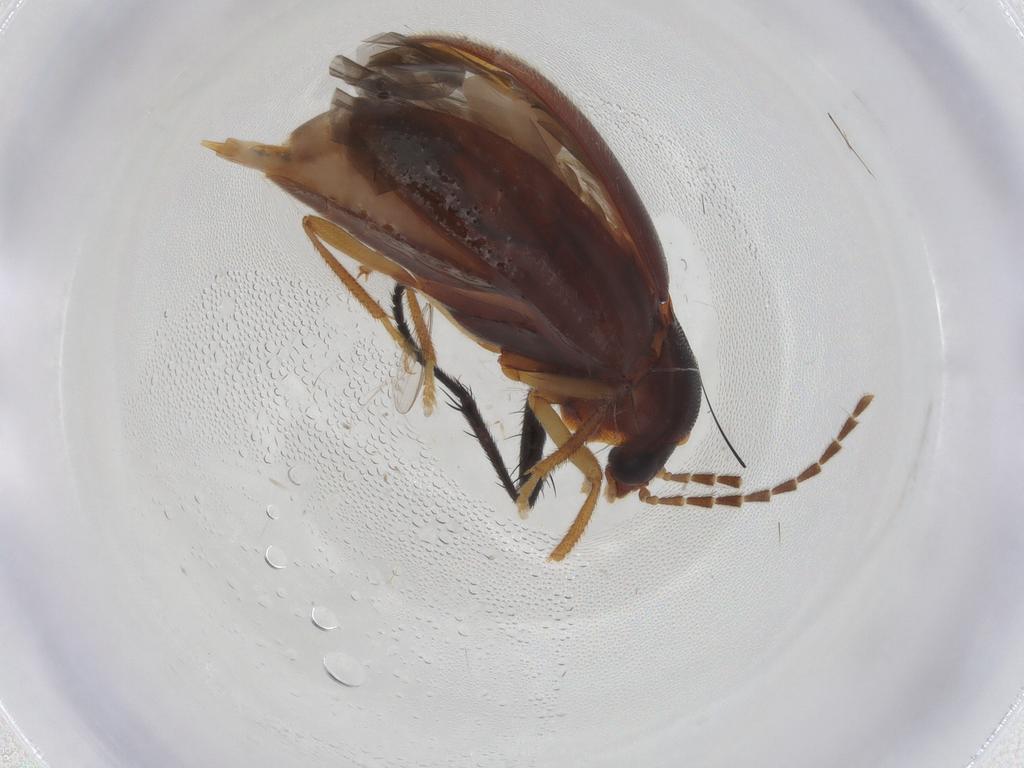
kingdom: Animalia
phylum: Arthropoda
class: Insecta
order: Coleoptera
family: Ptilodactylidae
